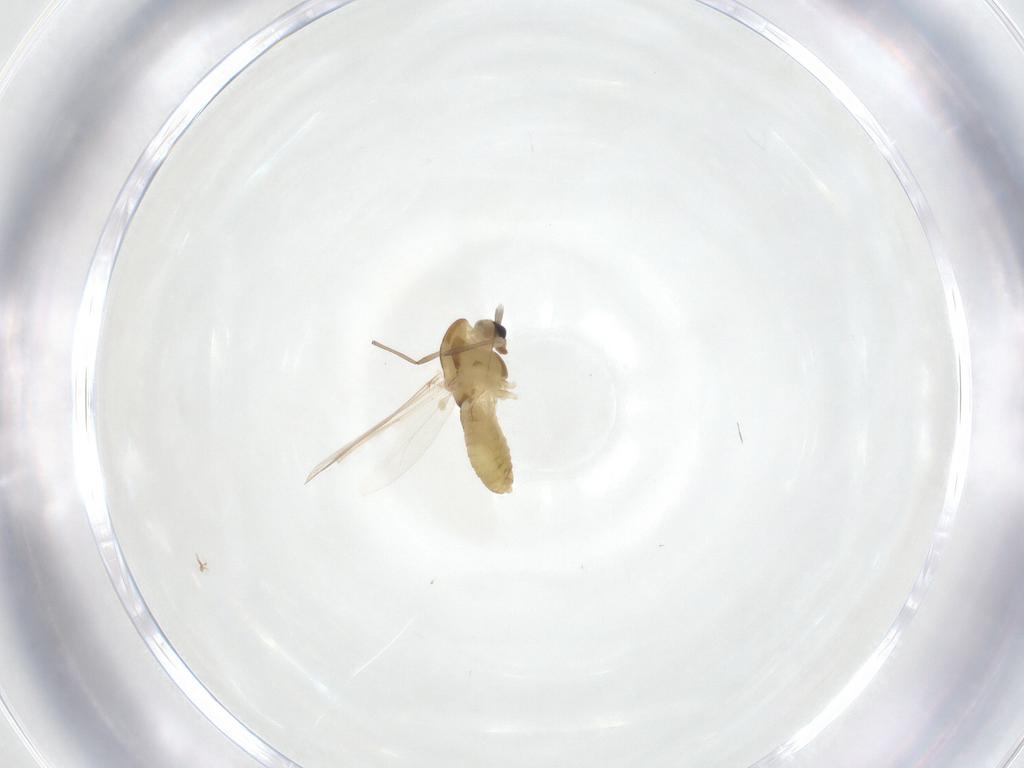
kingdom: Animalia
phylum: Arthropoda
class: Insecta
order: Diptera
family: Chironomidae
